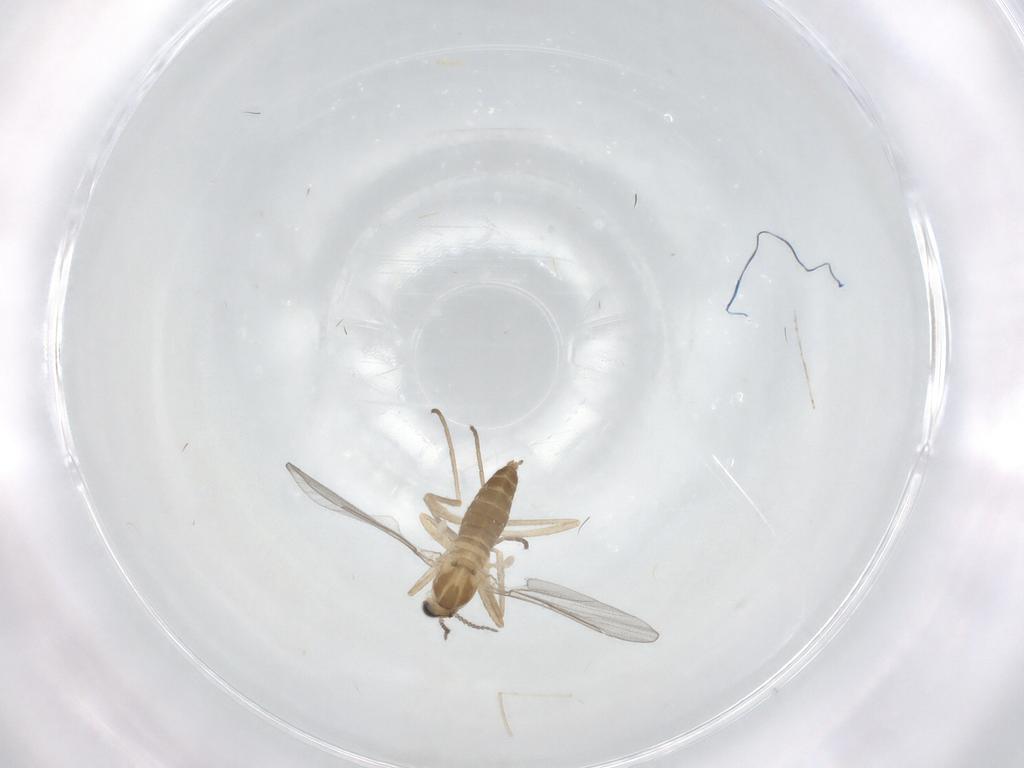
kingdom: Animalia
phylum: Arthropoda
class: Insecta
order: Diptera
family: Cecidomyiidae
